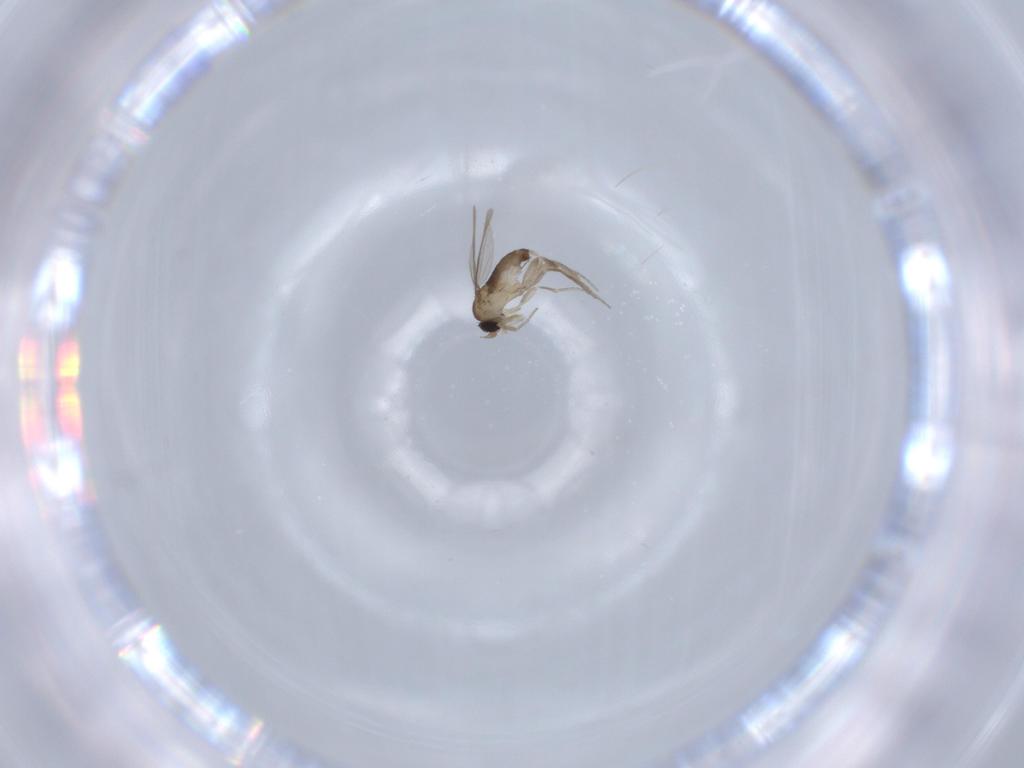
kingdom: Animalia
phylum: Arthropoda
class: Insecta
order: Diptera
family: Phoridae
